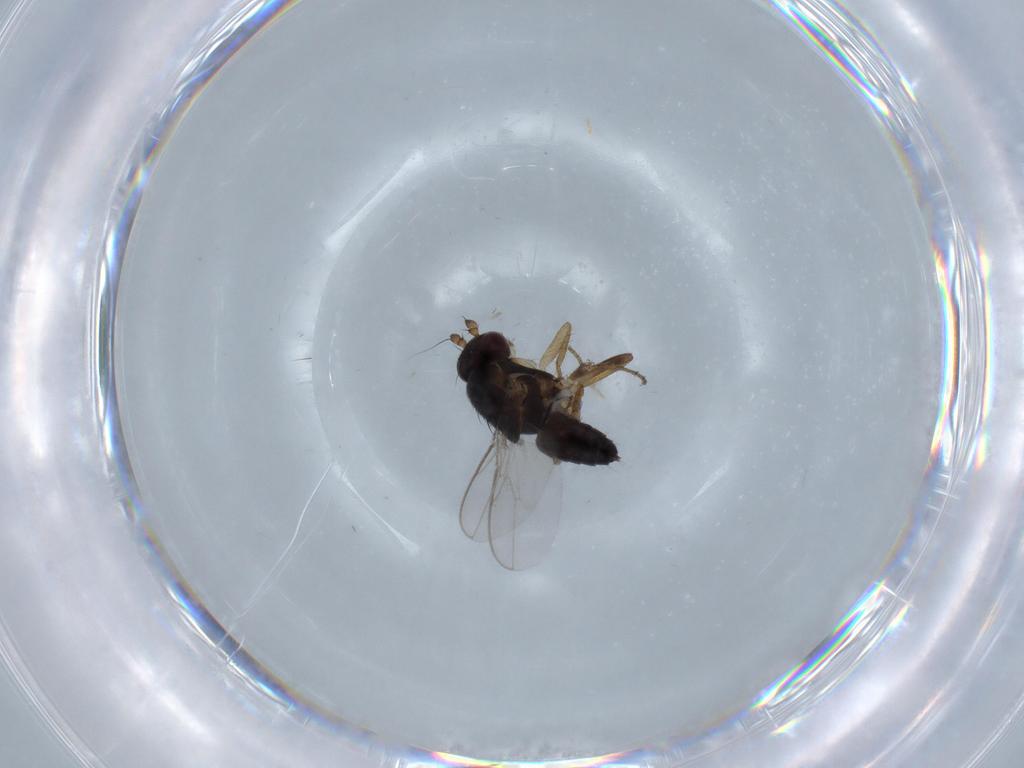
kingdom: Animalia
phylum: Arthropoda
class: Insecta
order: Diptera
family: Sphaeroceridae
